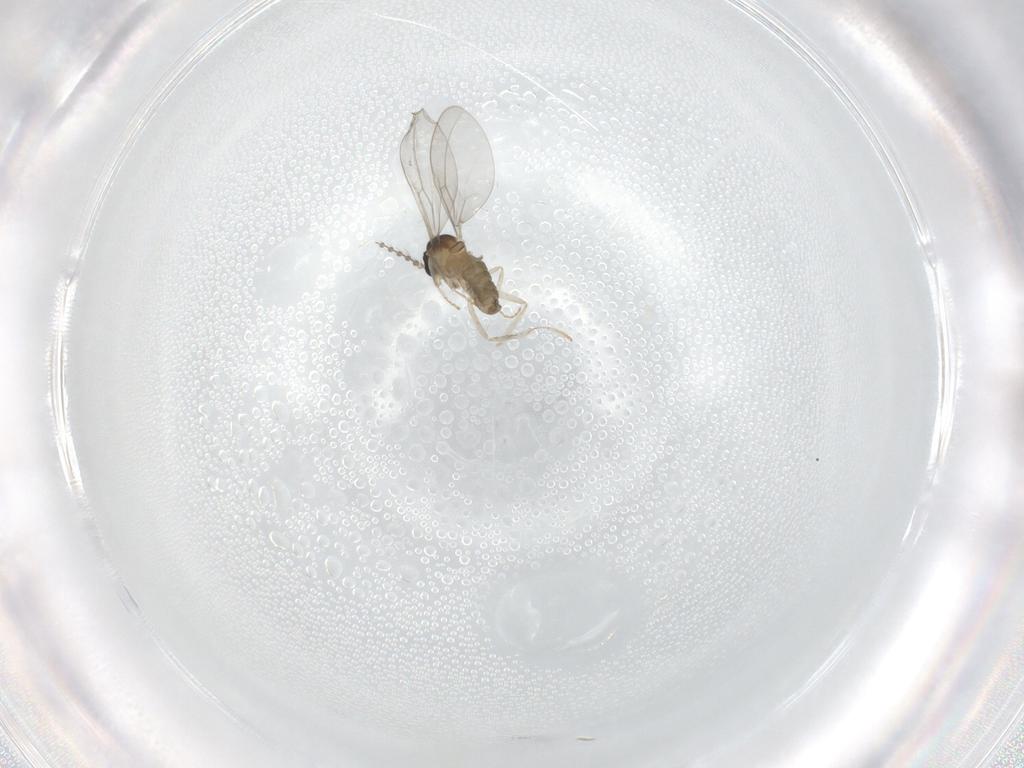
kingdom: Animalia
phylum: Arthropoda
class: Insecta
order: Diptera
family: Cecidomyiidae
